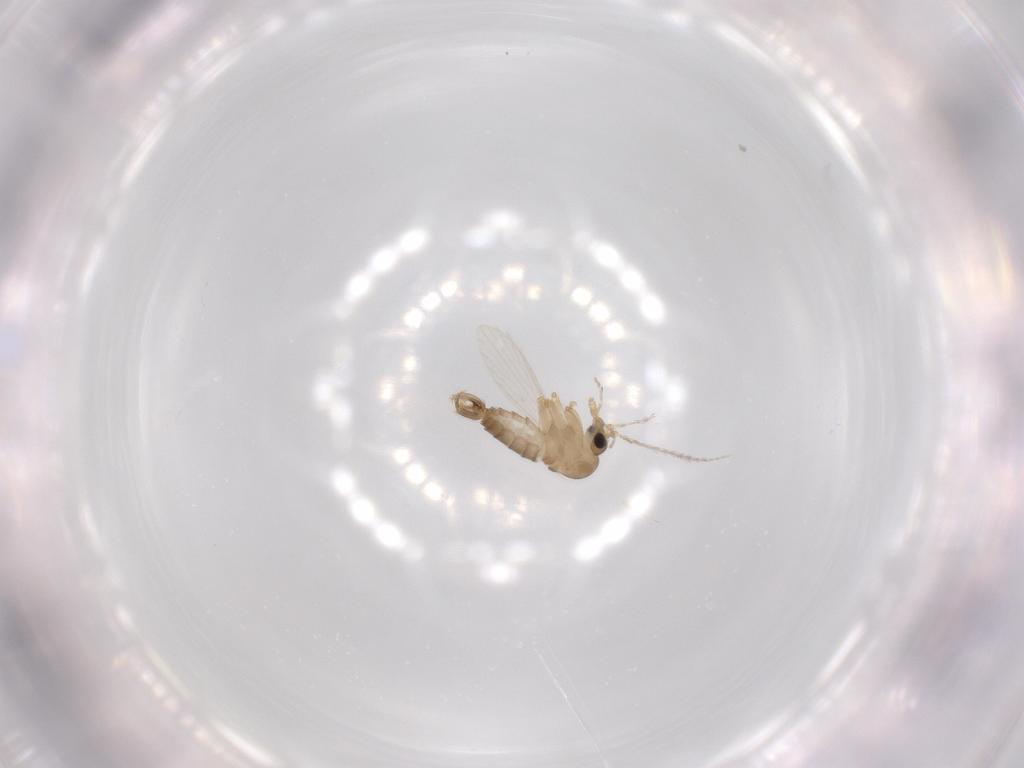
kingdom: Animalia
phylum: Arthropoda
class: Insecta
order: Diptera
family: Psychodidae
